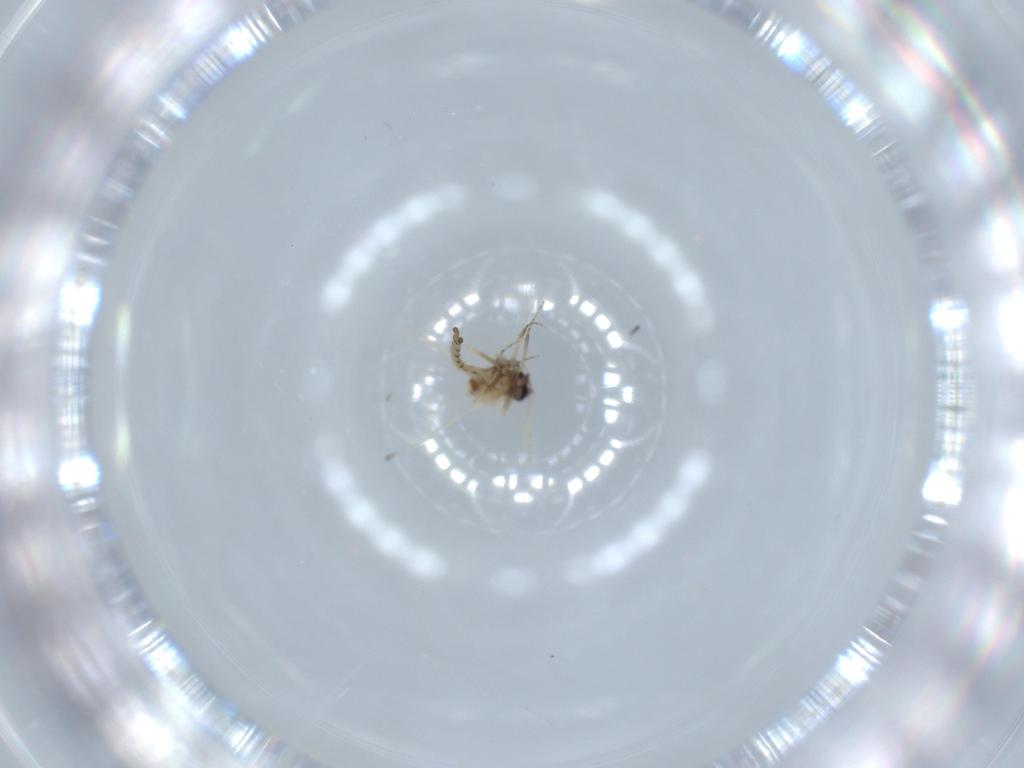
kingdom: Animalia
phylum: Arthropoda
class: Insecta
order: Diptera
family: Ceratopogonidae
